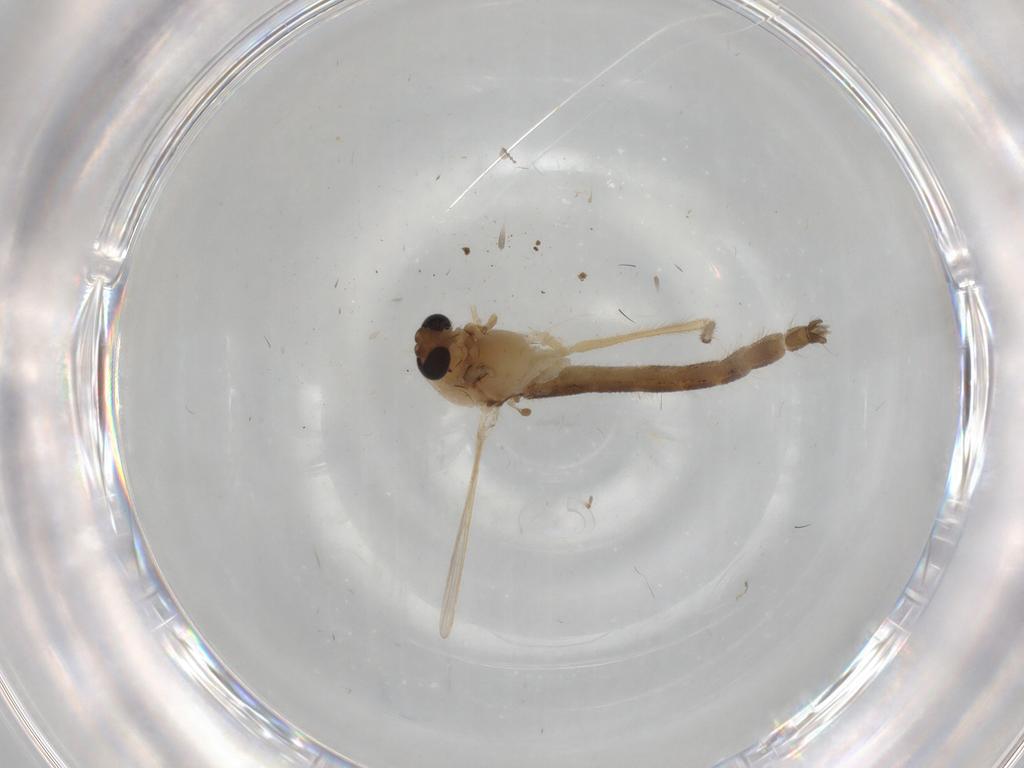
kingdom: Animalia
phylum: Arthropoda
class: Insecta
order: Diptera
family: Chironomidae
